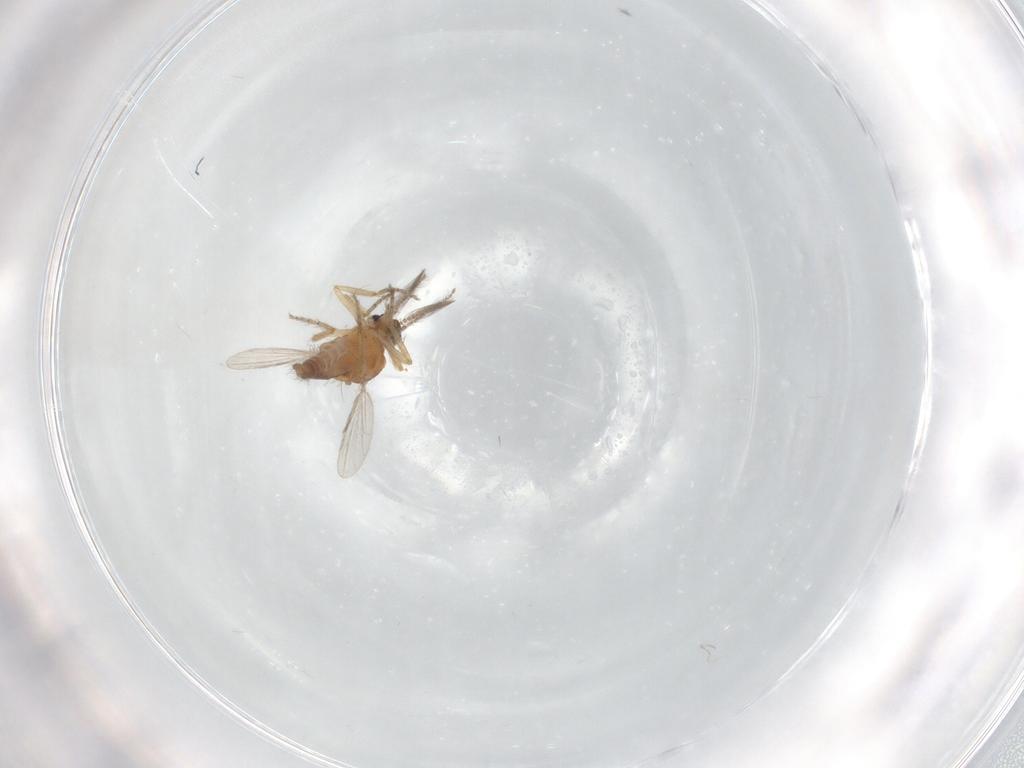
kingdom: Animalia
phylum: Arthropoda
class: Insecta
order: Diptera
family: Ceratopogonidae
